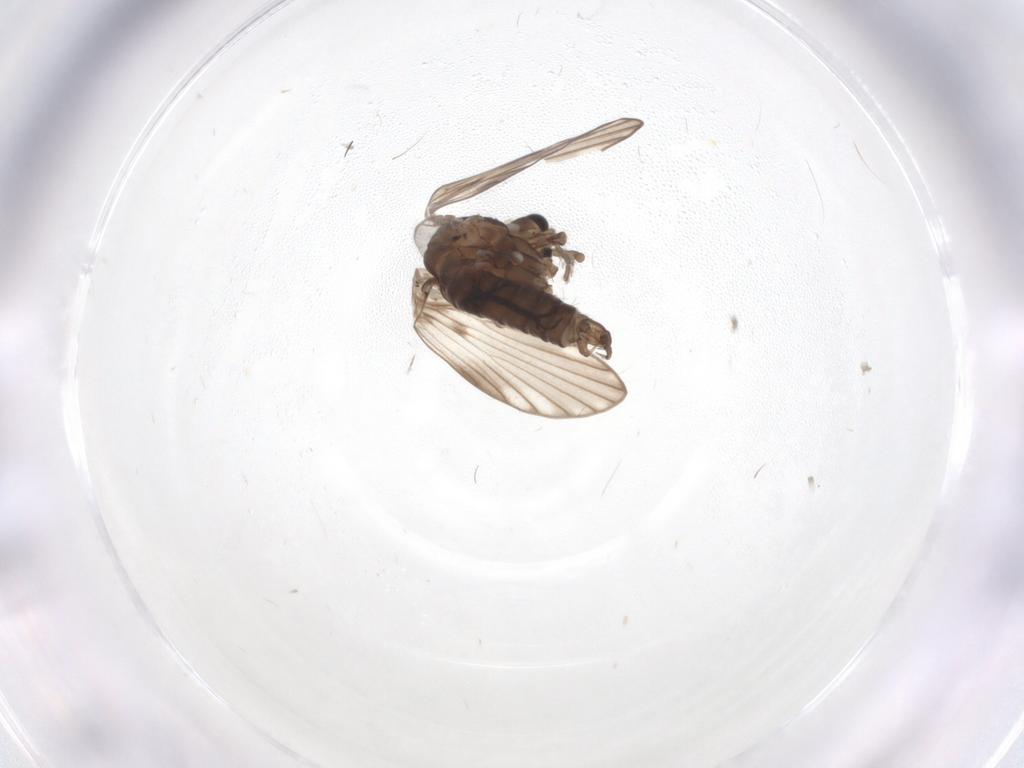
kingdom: Animalia
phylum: Arthropoda
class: Insecta
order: Diptera
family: Psychodidae
